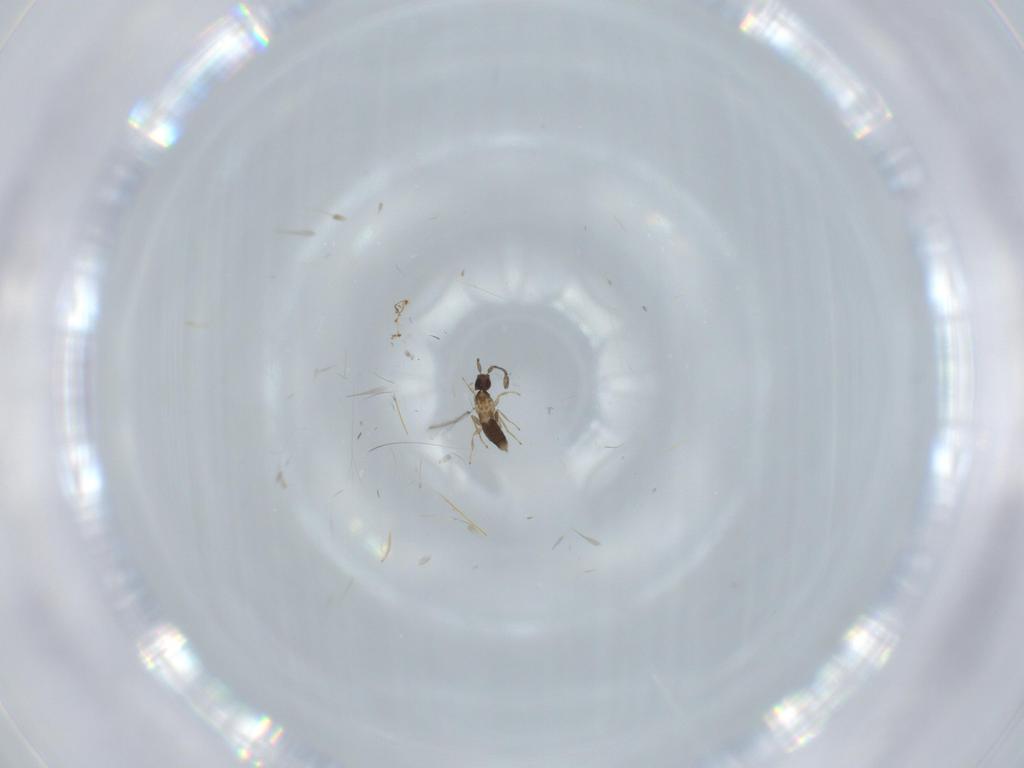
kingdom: Animalia
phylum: Arthropoda
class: Insecta
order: Hymenoptera
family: Mymaridae
